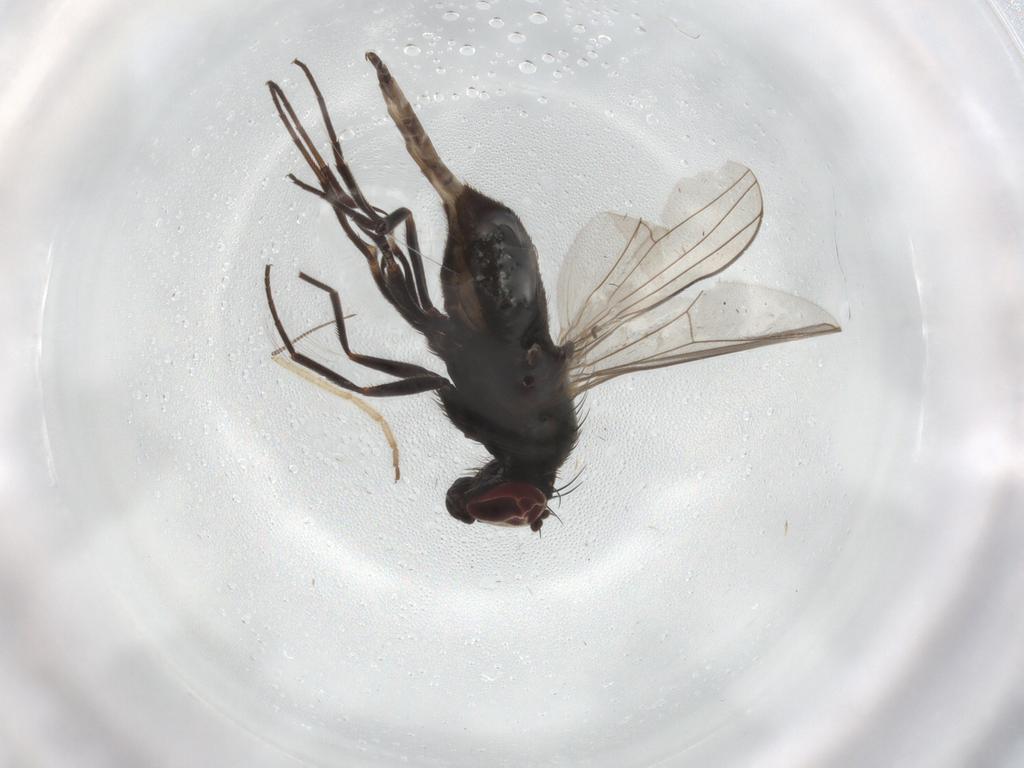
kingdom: Animalia
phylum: Arthropoda
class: Insecta
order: Diptera
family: Dolichopodidae
